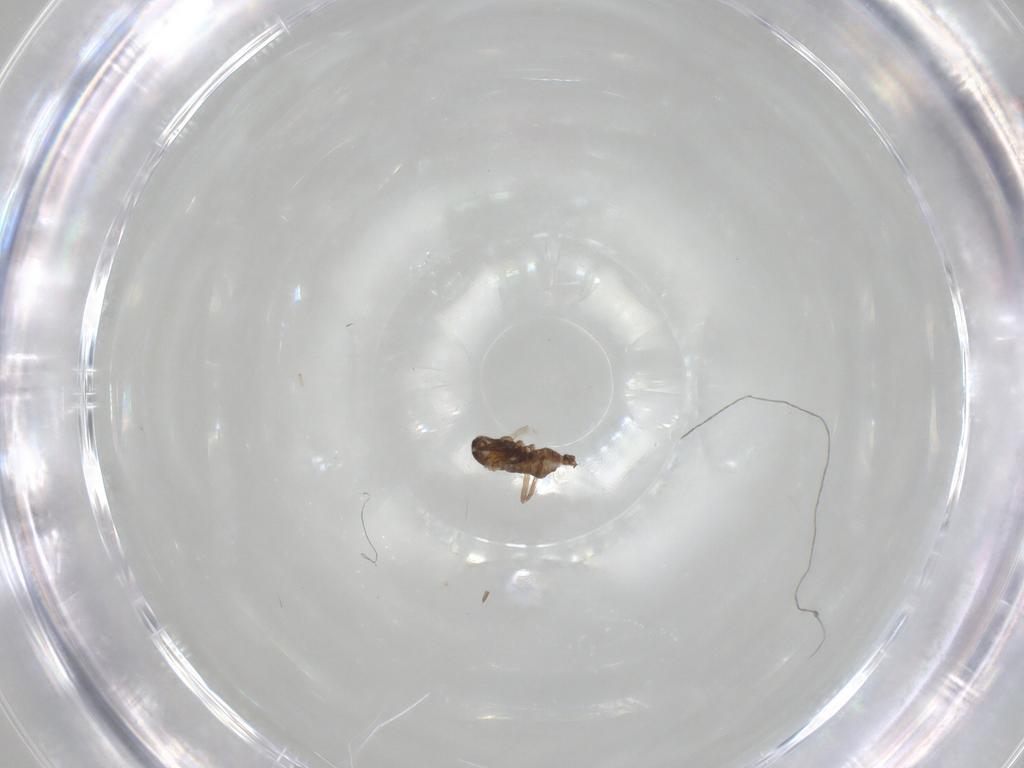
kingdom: Animalia
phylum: Arthropoda
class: Insecta
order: Diptera
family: Cecidomyiidae
